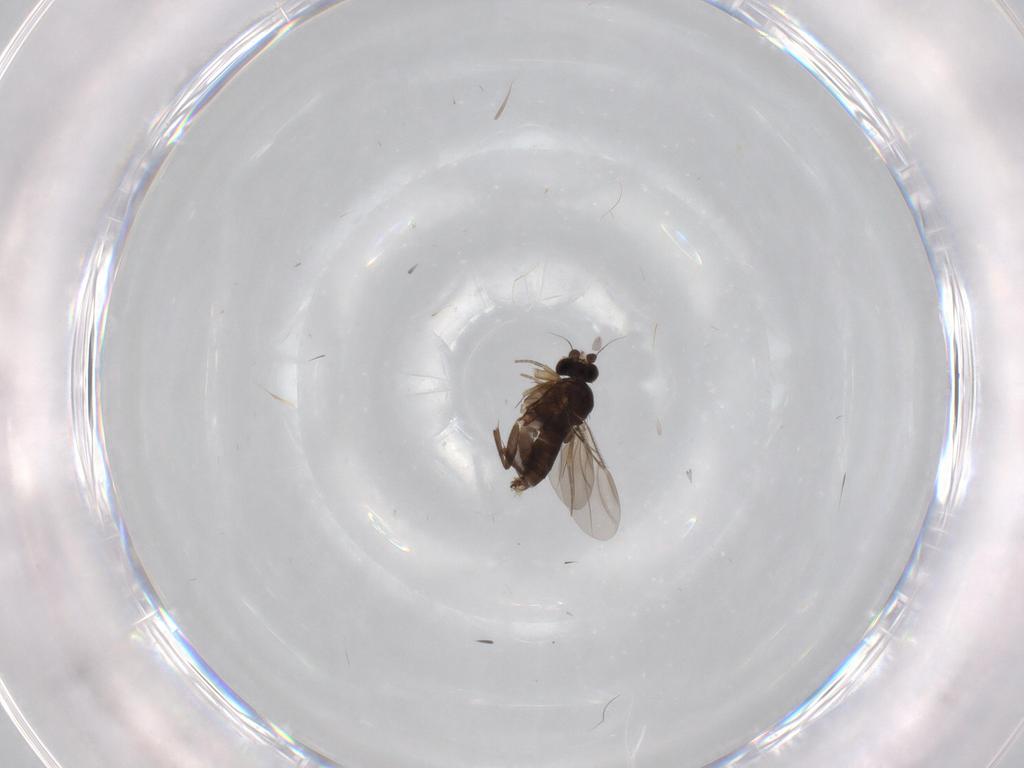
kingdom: Animalia
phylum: Arthropoda
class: Insecta
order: Diptera
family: Phoridae
